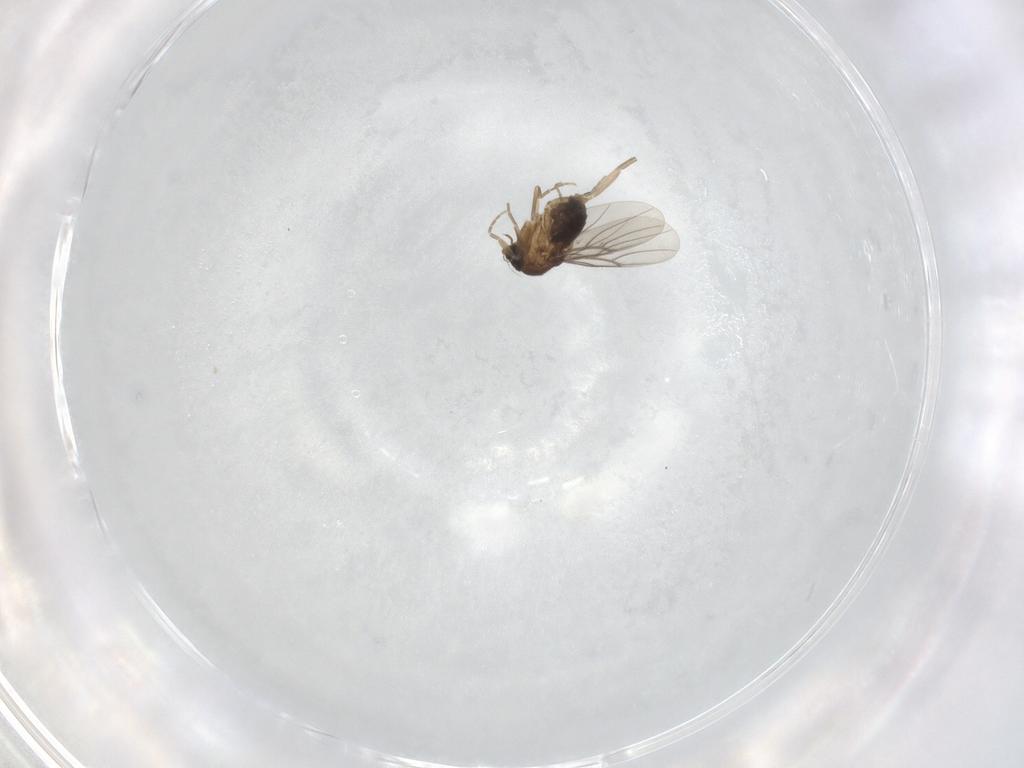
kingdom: Animalia
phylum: Arthropoda
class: Insecta
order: Diptera
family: Phoridae
